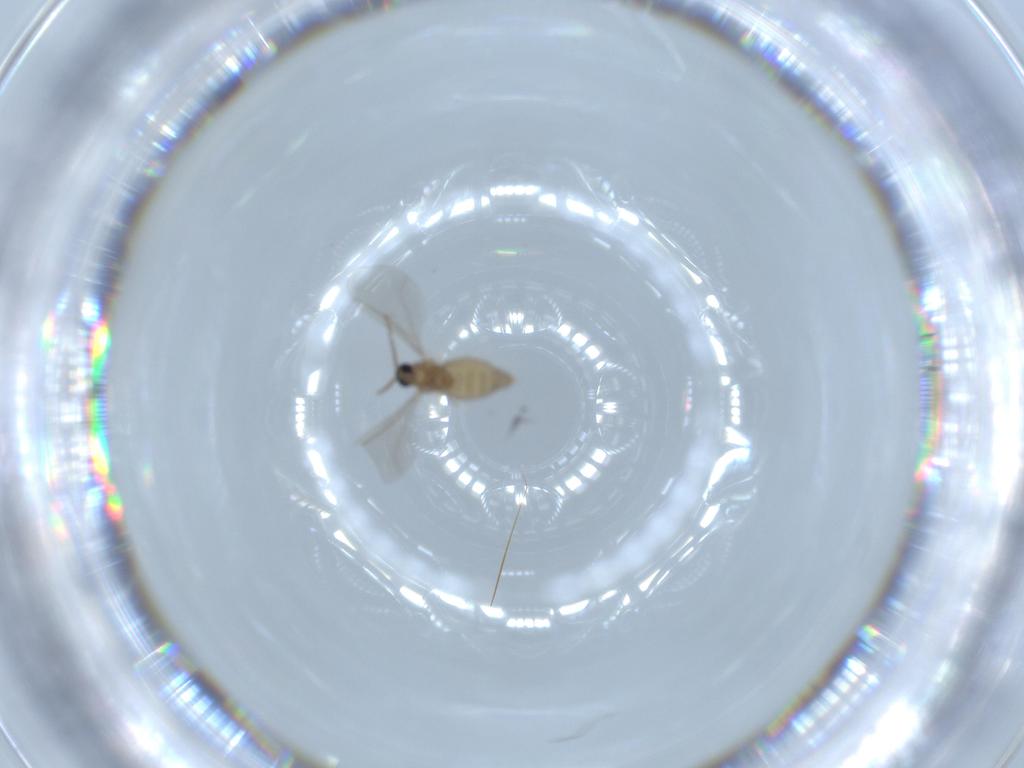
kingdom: Animalia
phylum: Arthropoda
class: Insecta
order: Diptera
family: Cecidomyiidae
